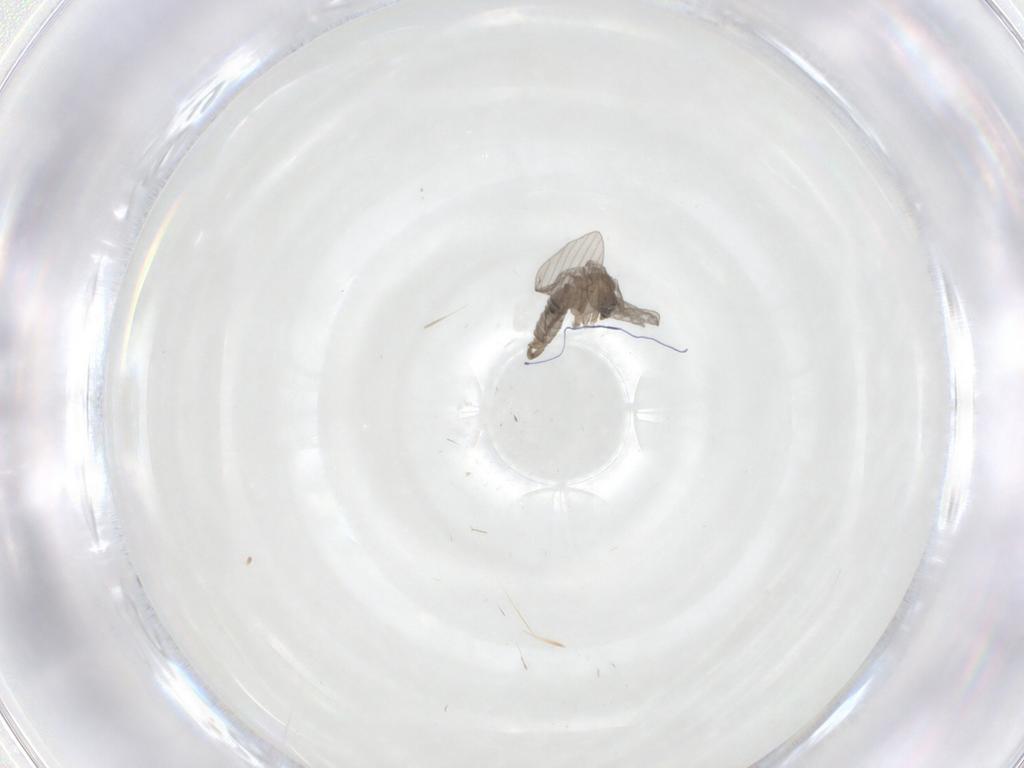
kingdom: Animalia
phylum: Arthropoda
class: Insecta
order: Diptera
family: Psychodidae
